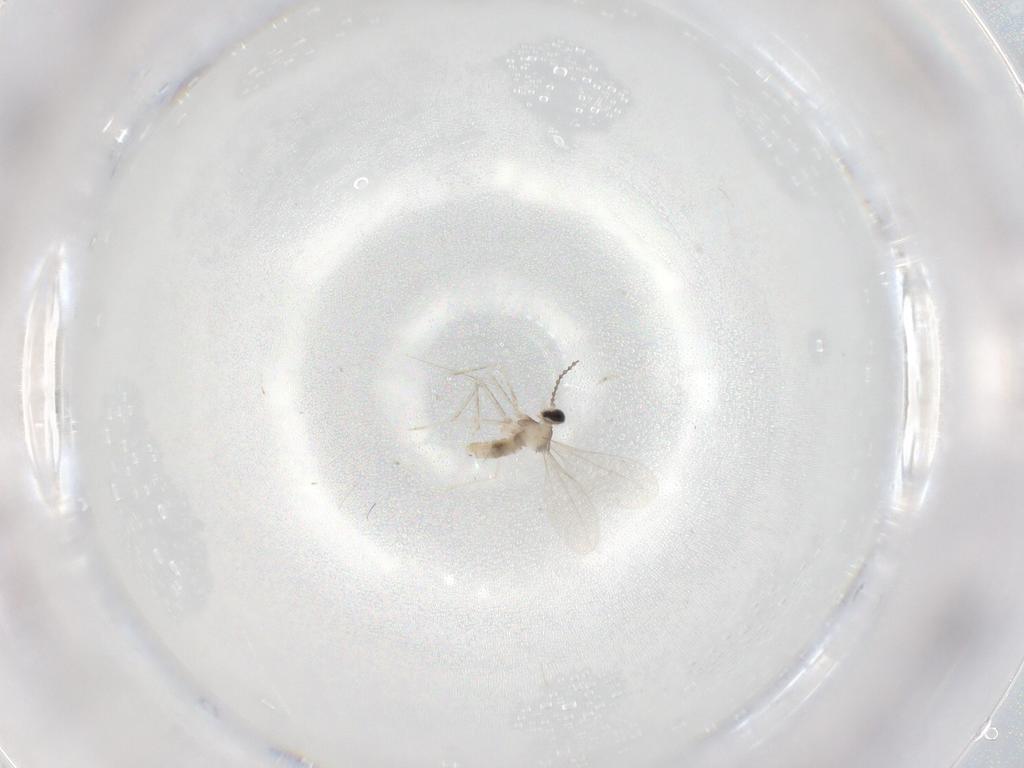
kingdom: Animalia
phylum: Arthropoda
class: Insecta
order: Diptera
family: Cecidomyiidae
